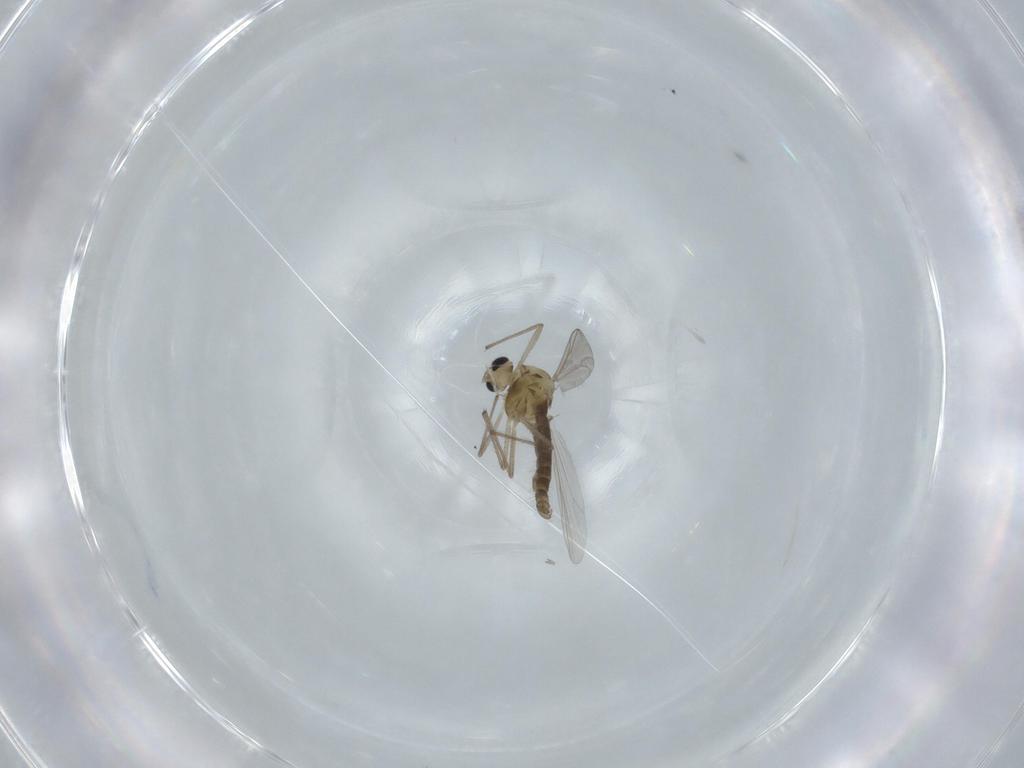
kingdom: Animalia
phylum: Arthropoda
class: Insecta
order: Diptera
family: Chironomidae
